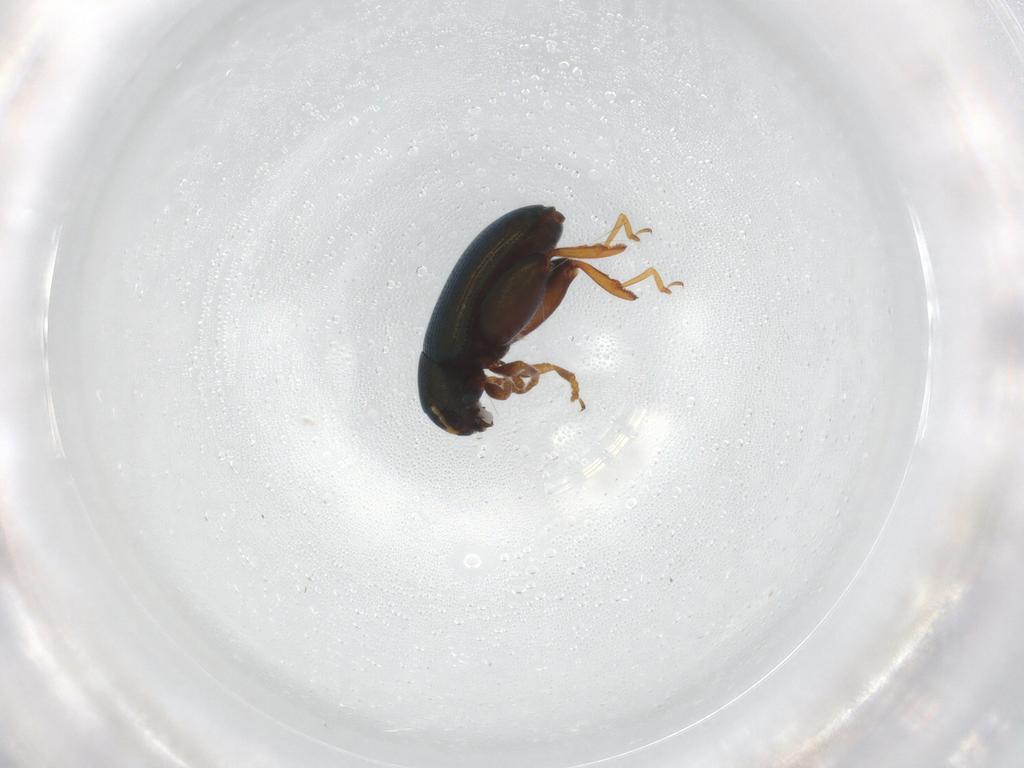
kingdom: Animalia
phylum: Arthropoda
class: Insecta
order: Coleoptera
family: Chrysomelidae
